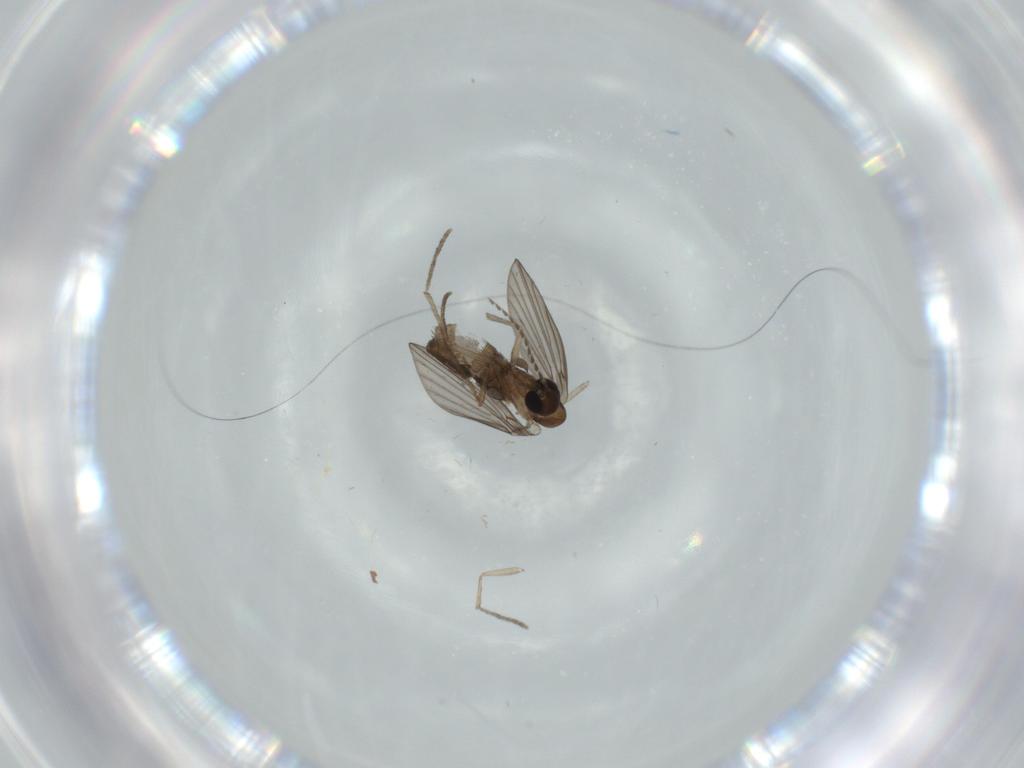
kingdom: Animalia
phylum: Arthropoda
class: Insecta
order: Diptera
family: Psychodidae
